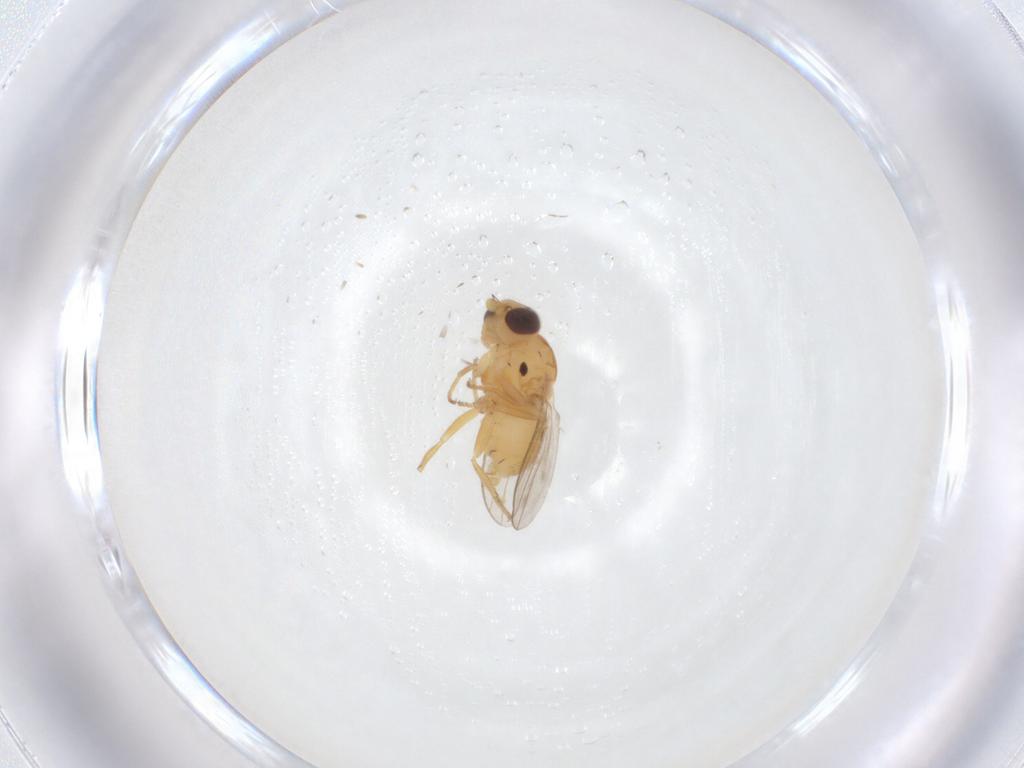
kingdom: Animalia
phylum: Arthropoda
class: Insecta
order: Diptera
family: Chloropidae
